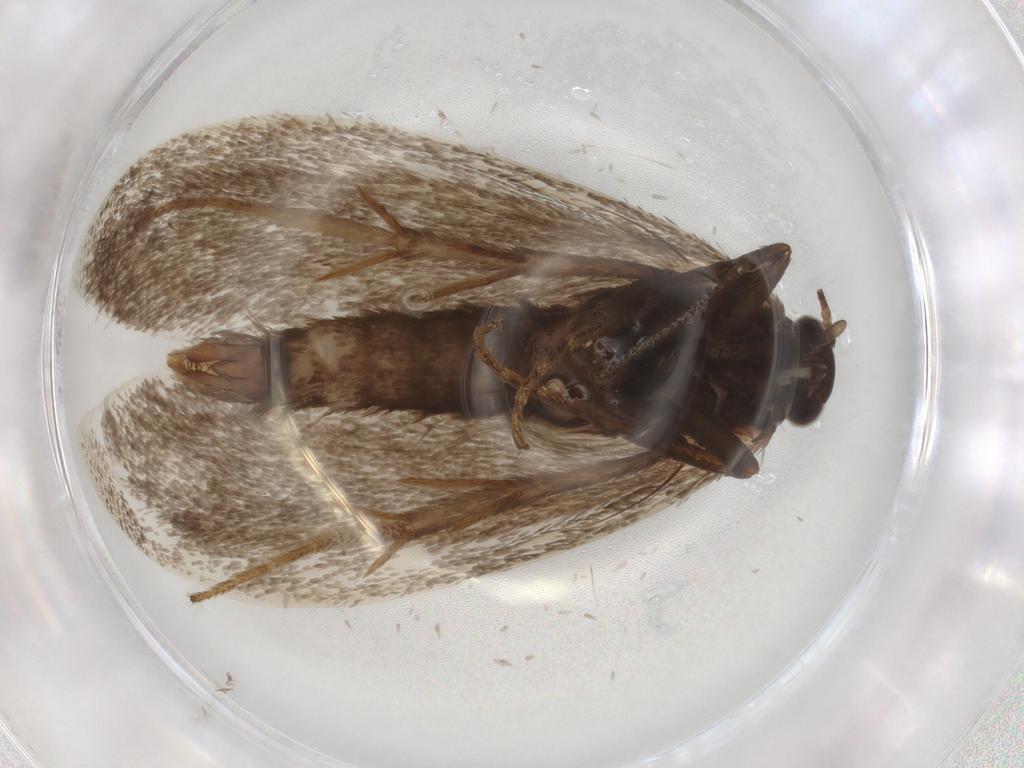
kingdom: Animalia
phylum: Arthropoda
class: Insecta
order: Lepidoptera
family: Crambidae
